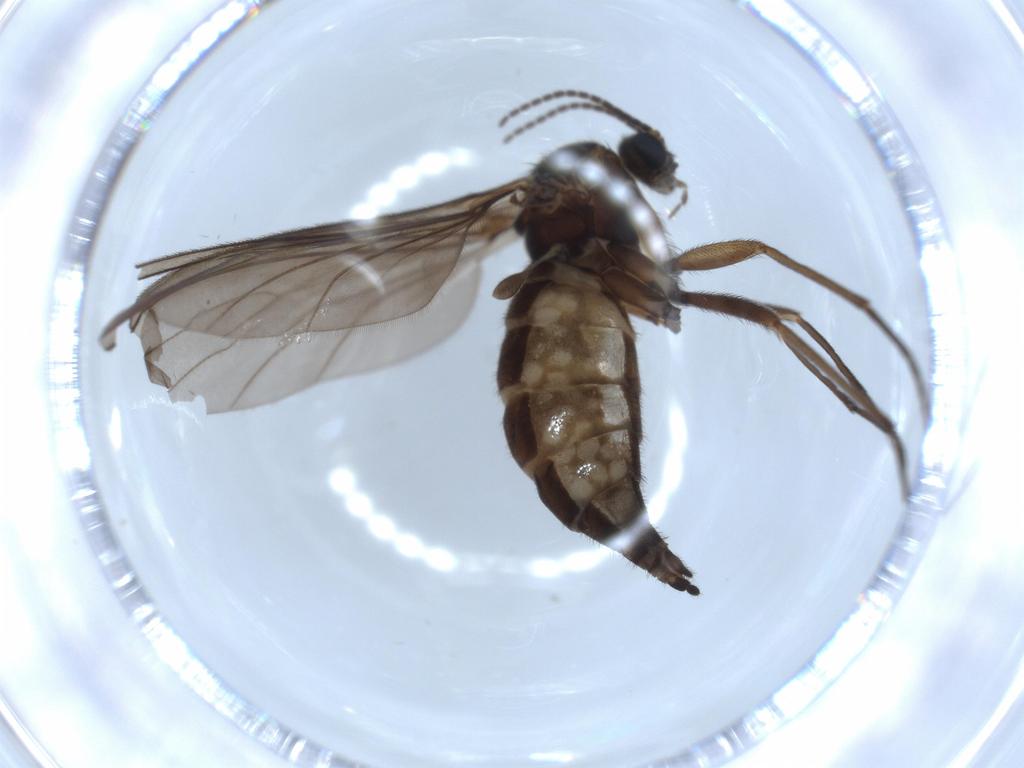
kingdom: Animalia
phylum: Arthropoda
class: Insecta
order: Diptera
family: Sciaridae
